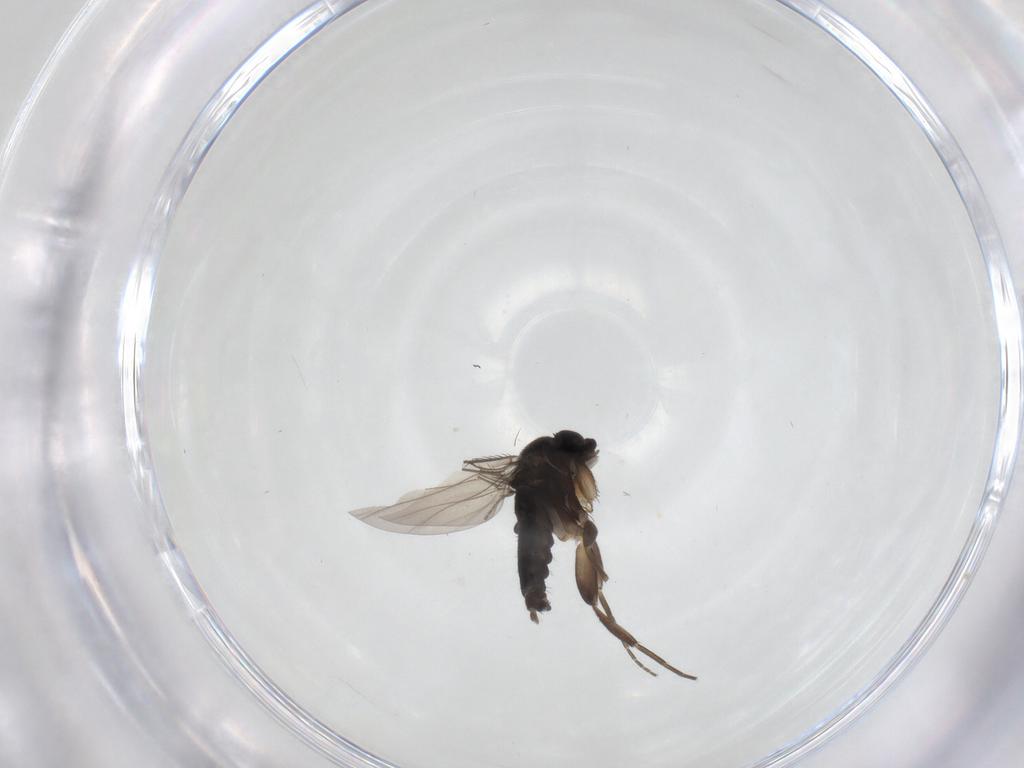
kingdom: Animalia
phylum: Arthropoda
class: Insecta
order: Diptera
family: Phoridae
